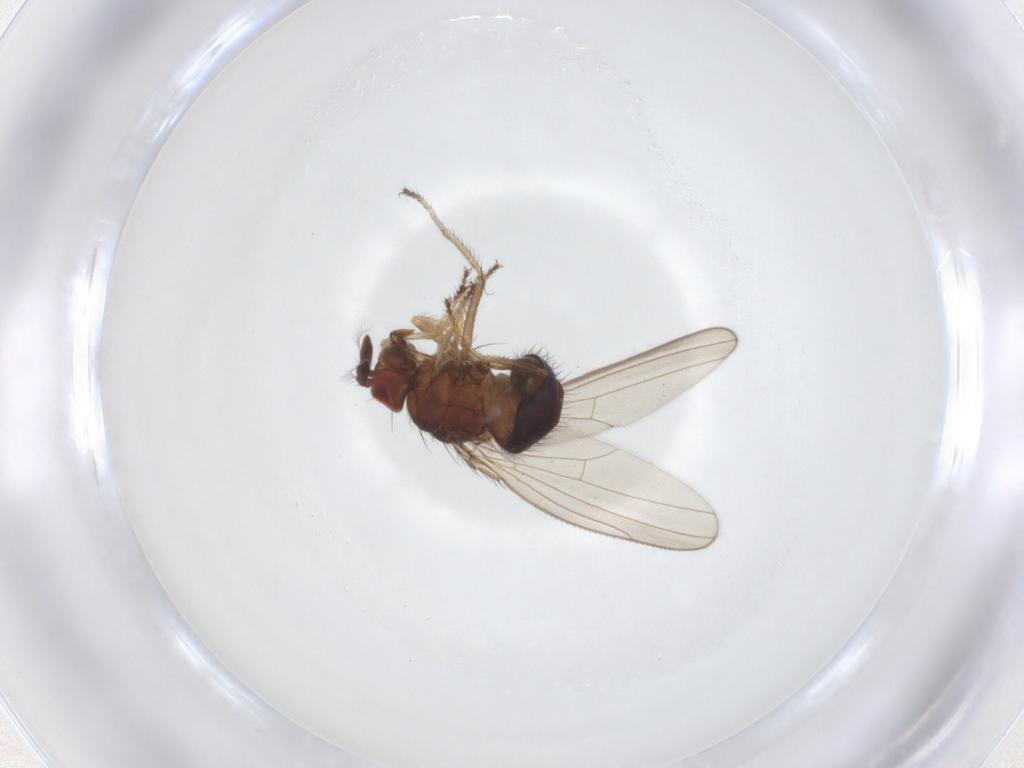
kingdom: Animalia
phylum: Arthropoda
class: Insecta
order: Diptera
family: Ephydridae
